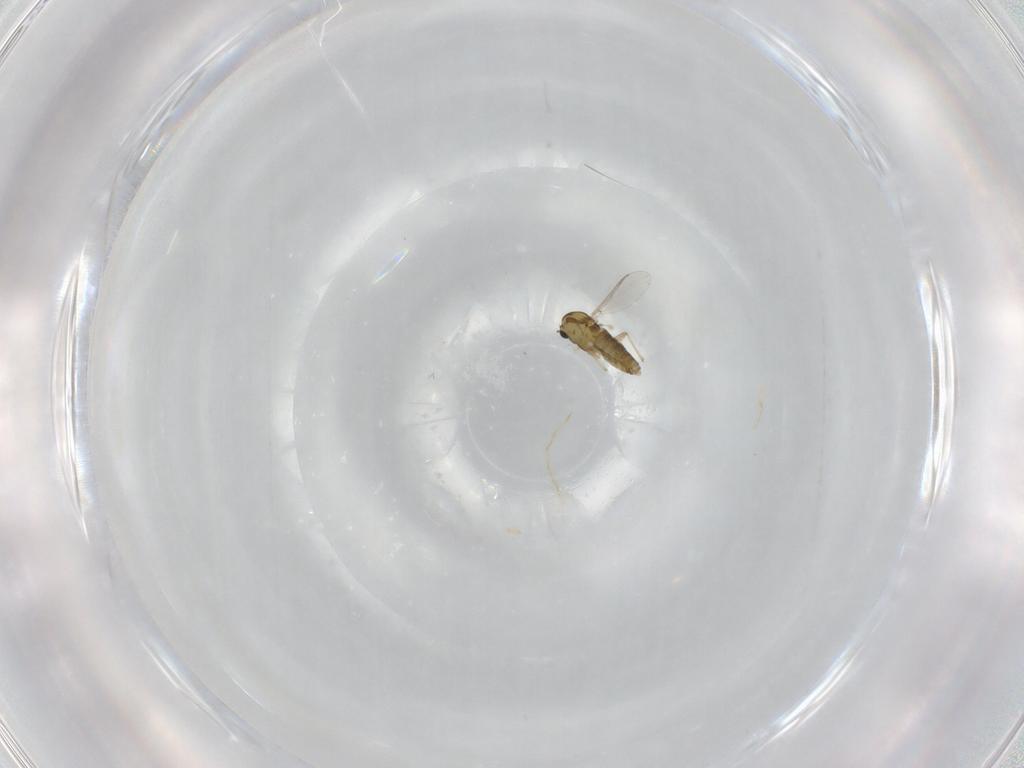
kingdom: Animalia
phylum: Arthropoda
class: Insecta
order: Diptera
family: Chironomidae
